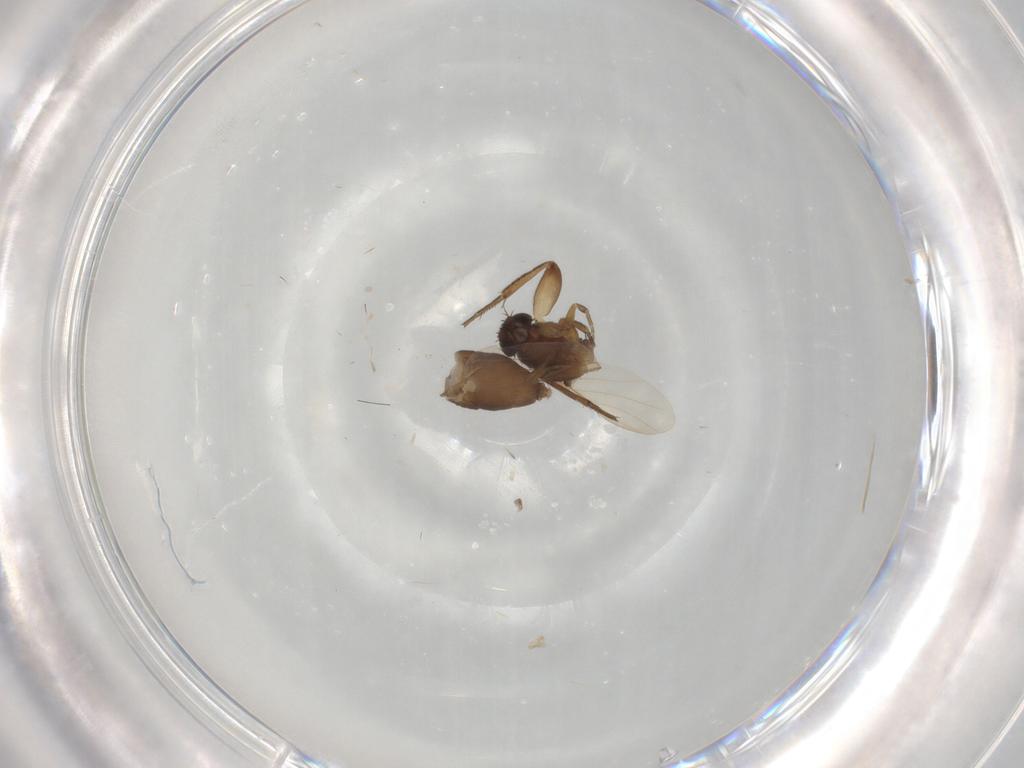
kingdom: Animalia
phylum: Arthropoda
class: Insecta
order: Diptera
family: Phoridae
